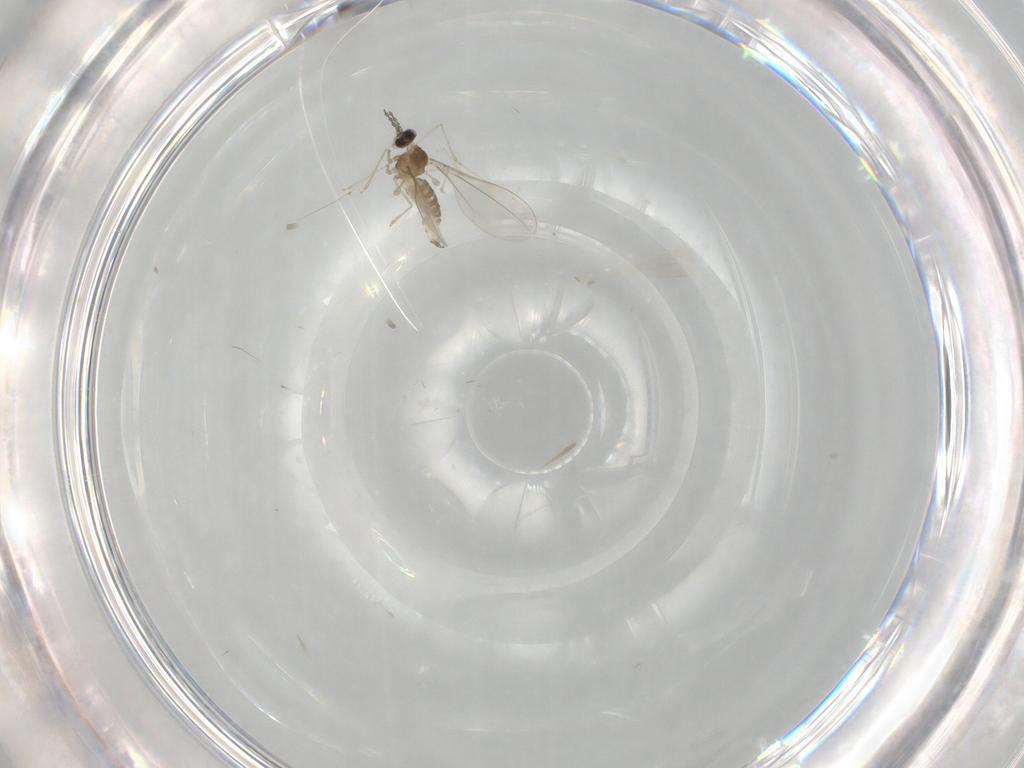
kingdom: Animalia
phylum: Arthropoda
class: Insecta
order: Diptera
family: Cecidomyiidae
